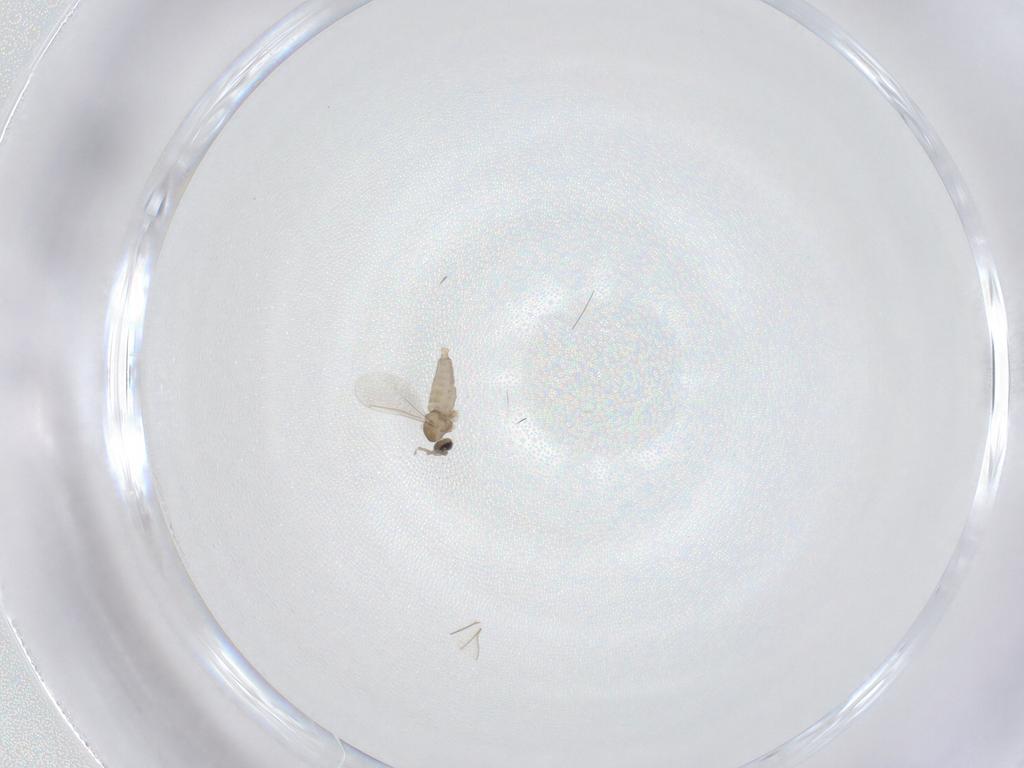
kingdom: Animalia
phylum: Arthropoda
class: Insecta
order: Diptera
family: Cecidomyiidae
